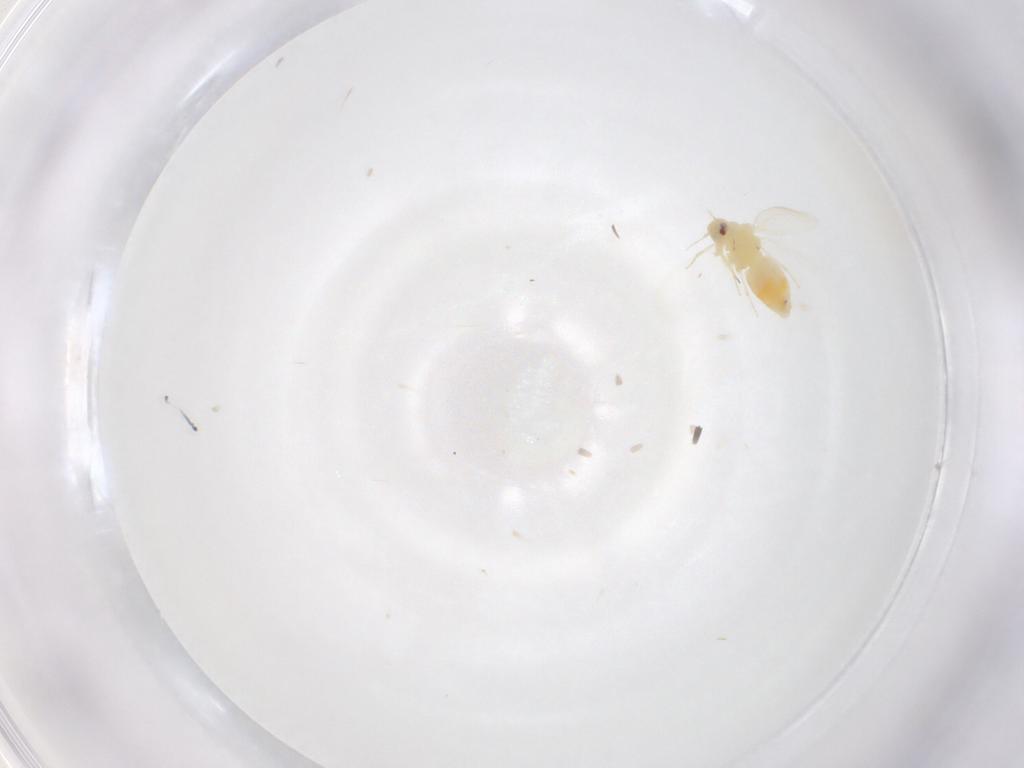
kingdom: Animalia
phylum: Arthropoda
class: Insecta
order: Hemiptera
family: Aleyrodidae
